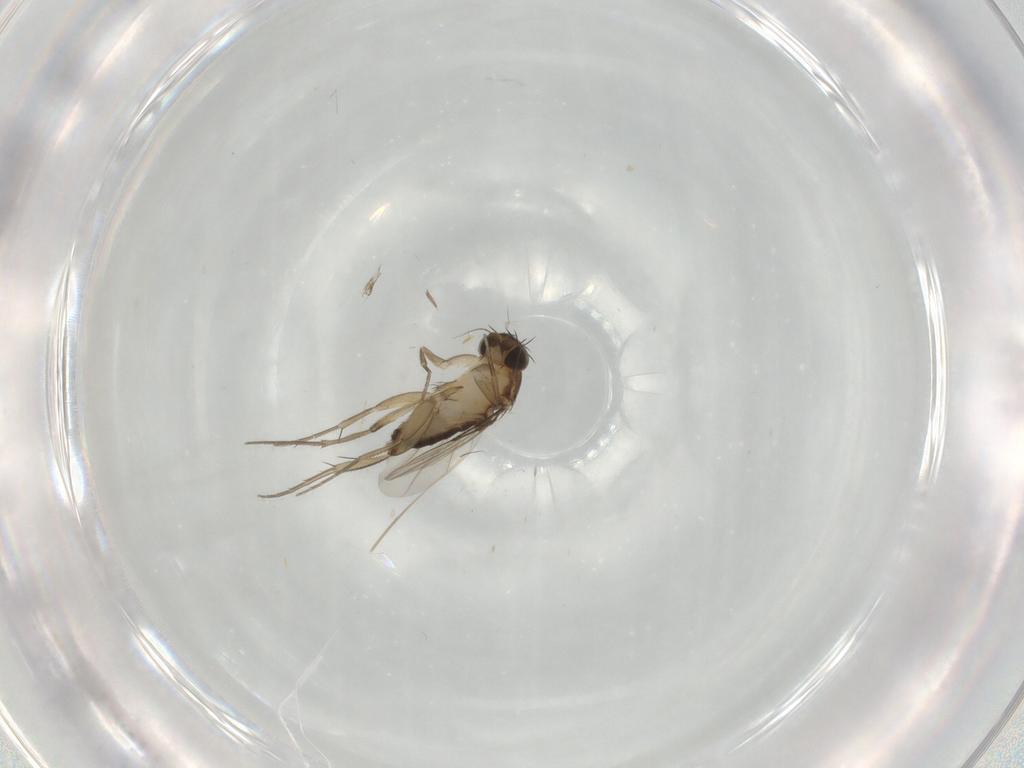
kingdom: Animalia
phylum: Arthropoda
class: Insecta
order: Diptera
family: Phoridae
